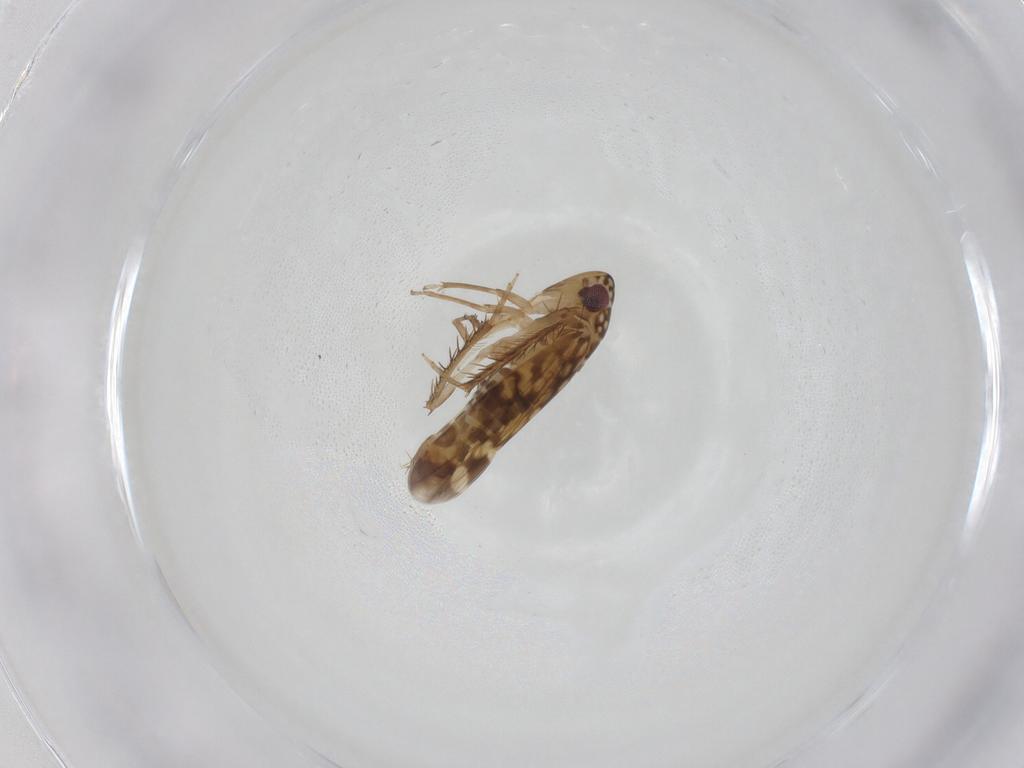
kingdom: Animalia
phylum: Arthropoda
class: Insecta
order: Hemiptera
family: Cicadellidae
